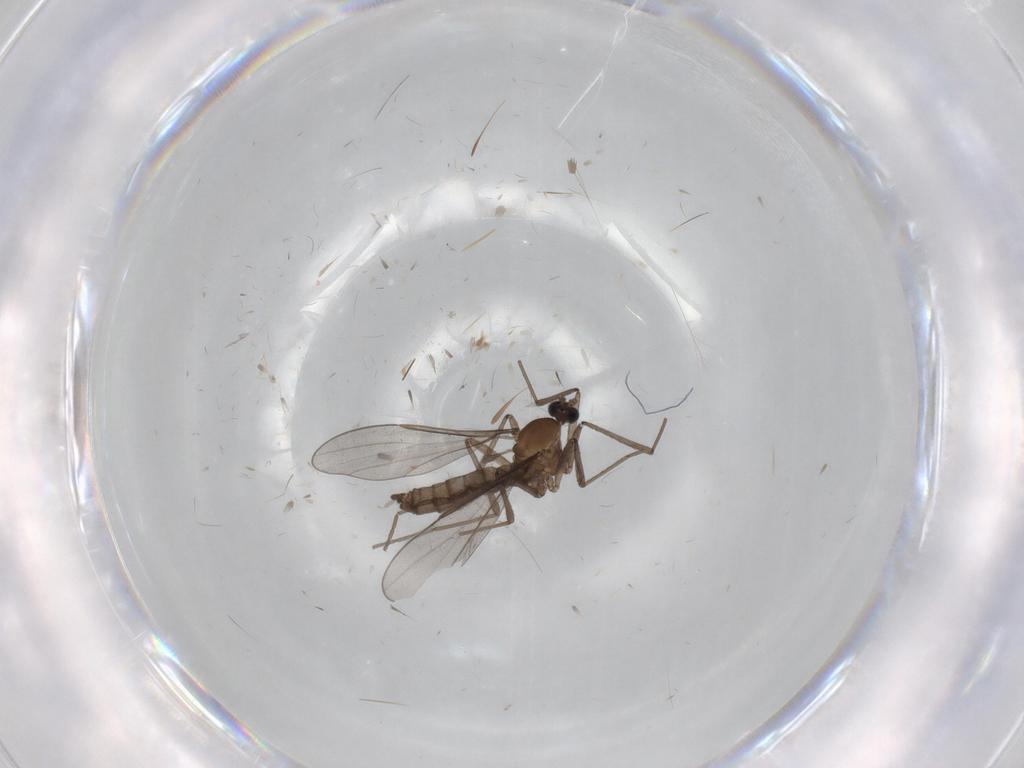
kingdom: Animalia
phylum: Arthropoda
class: Insecta
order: Diptera
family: Cecidomyiidae
